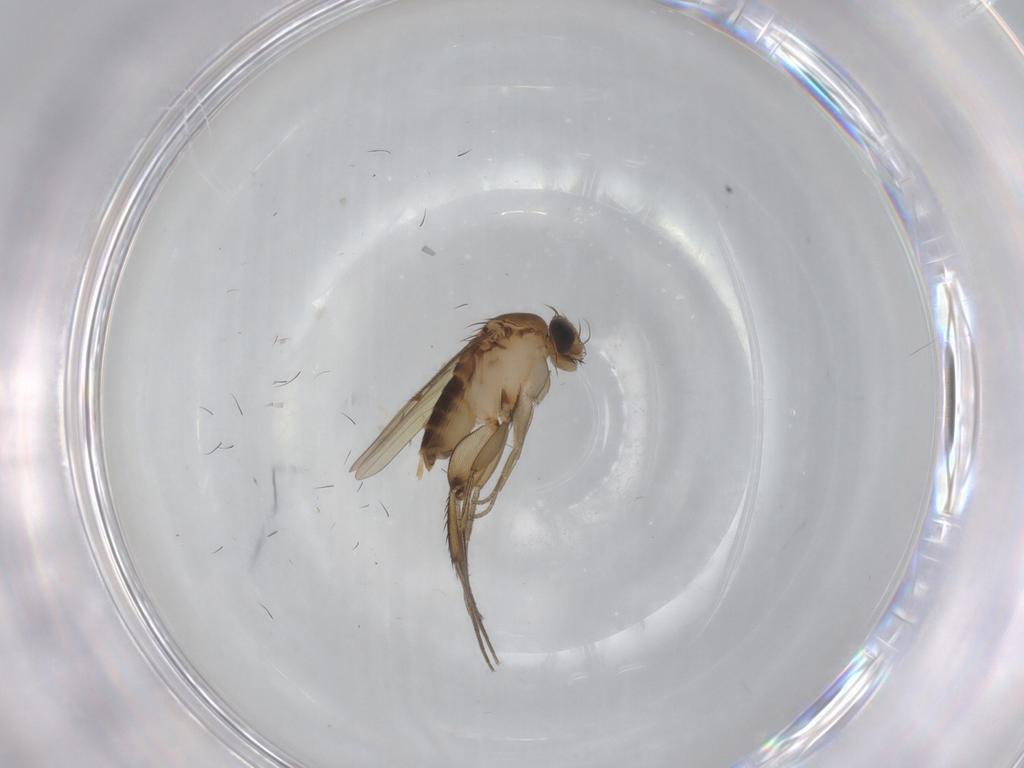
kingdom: Animalia
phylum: Arthropoda
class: Insecta
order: Diptera
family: Phoridae
